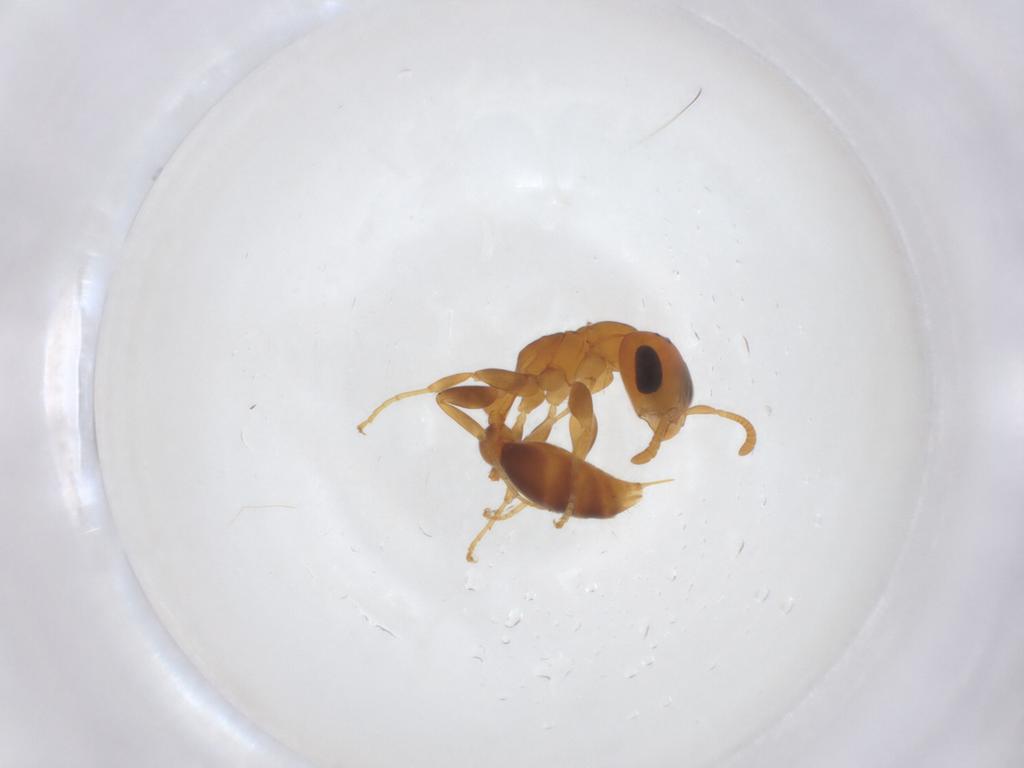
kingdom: Animalia
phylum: Arthropoda
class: Insecta
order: Hymenoptera
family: Formicidae
